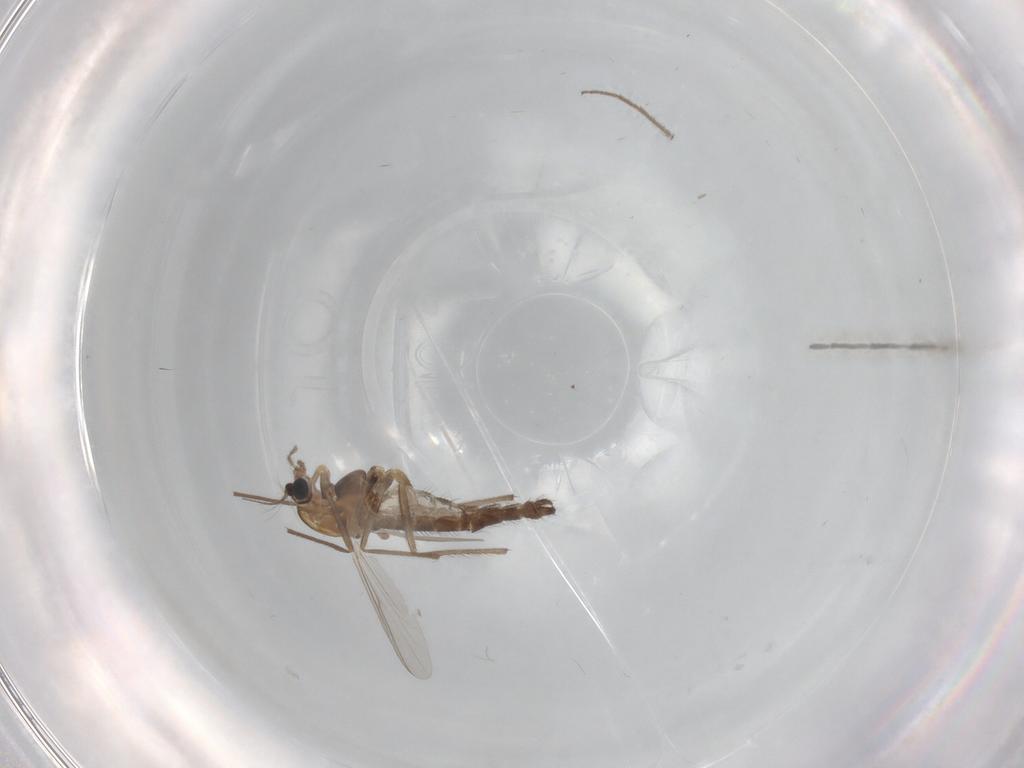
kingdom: Animalia
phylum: Arthropoda
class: Insecta
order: Diptera
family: Chironomidae
